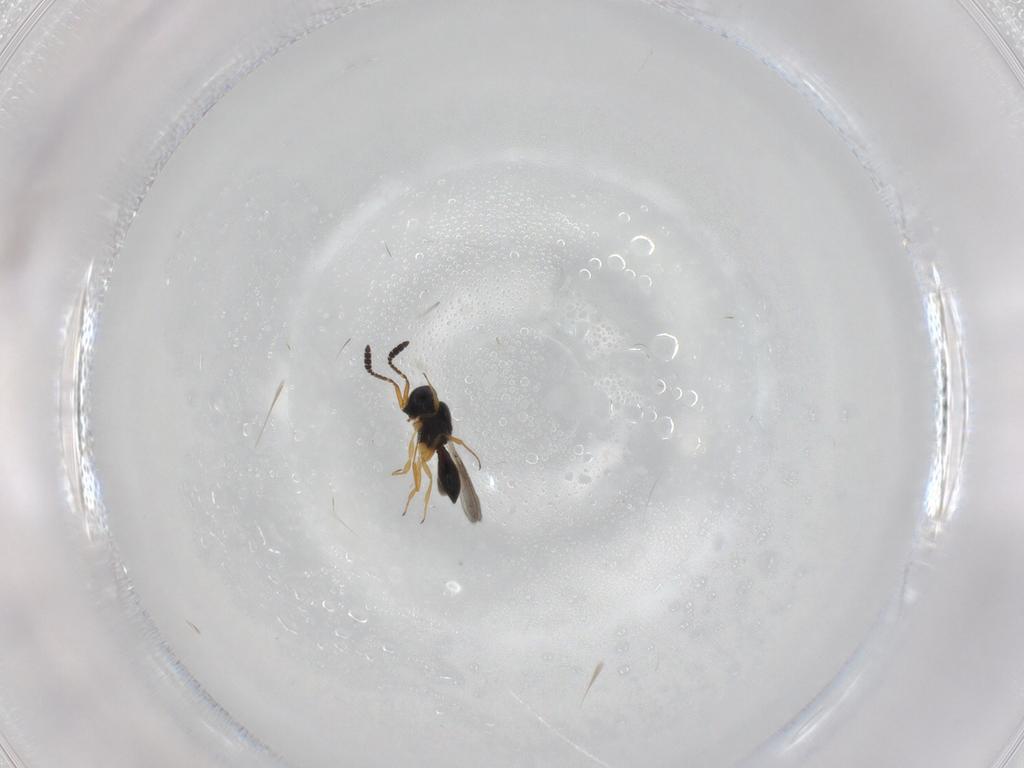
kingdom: Animalia
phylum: Arthropoda
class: Insecta
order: Hymenoptera
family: Scelionidae
